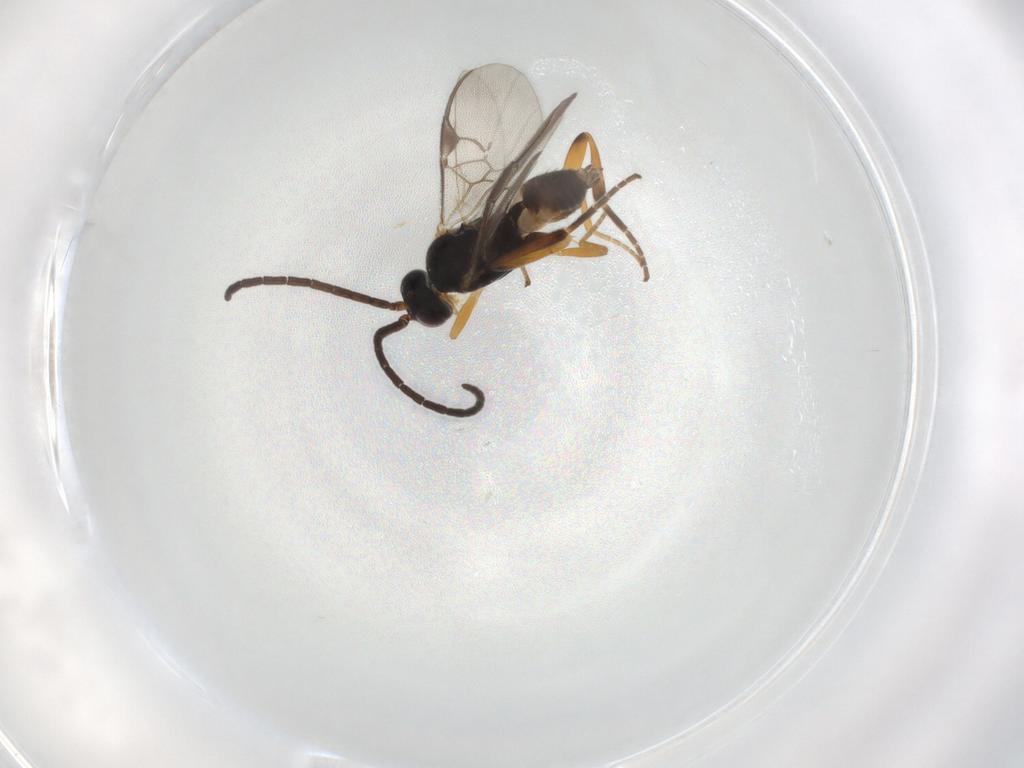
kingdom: Animalia
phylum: Arthropoda
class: Insecta
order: Hymenoptera
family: Braconidae
